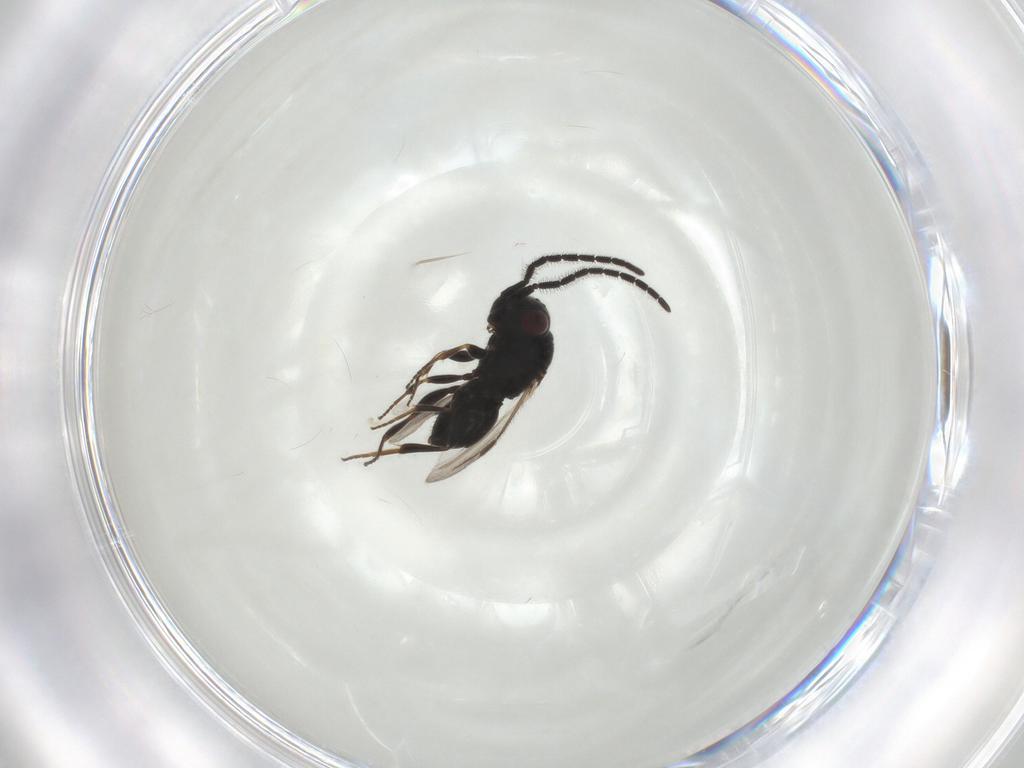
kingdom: Animalia
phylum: Arthropoda
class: Insecta
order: Hymenoptera
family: Megaspilidae
